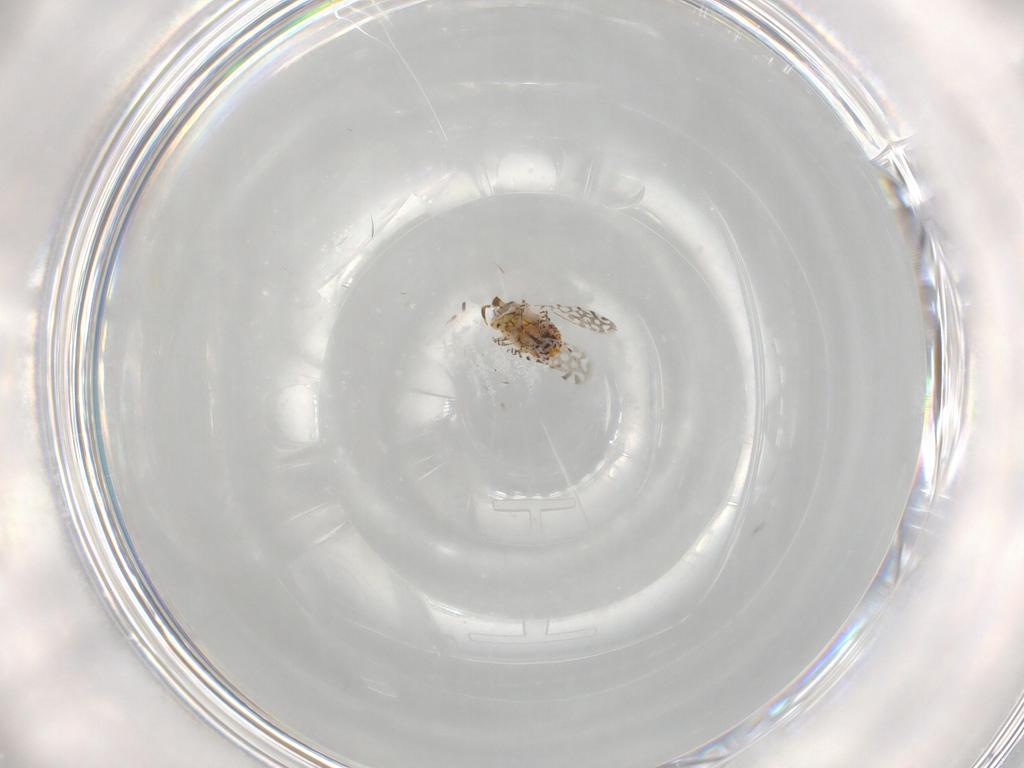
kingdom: Animalia
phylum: Arthropoda
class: Insecta
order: Hymenoptera
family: Aphelinidae
